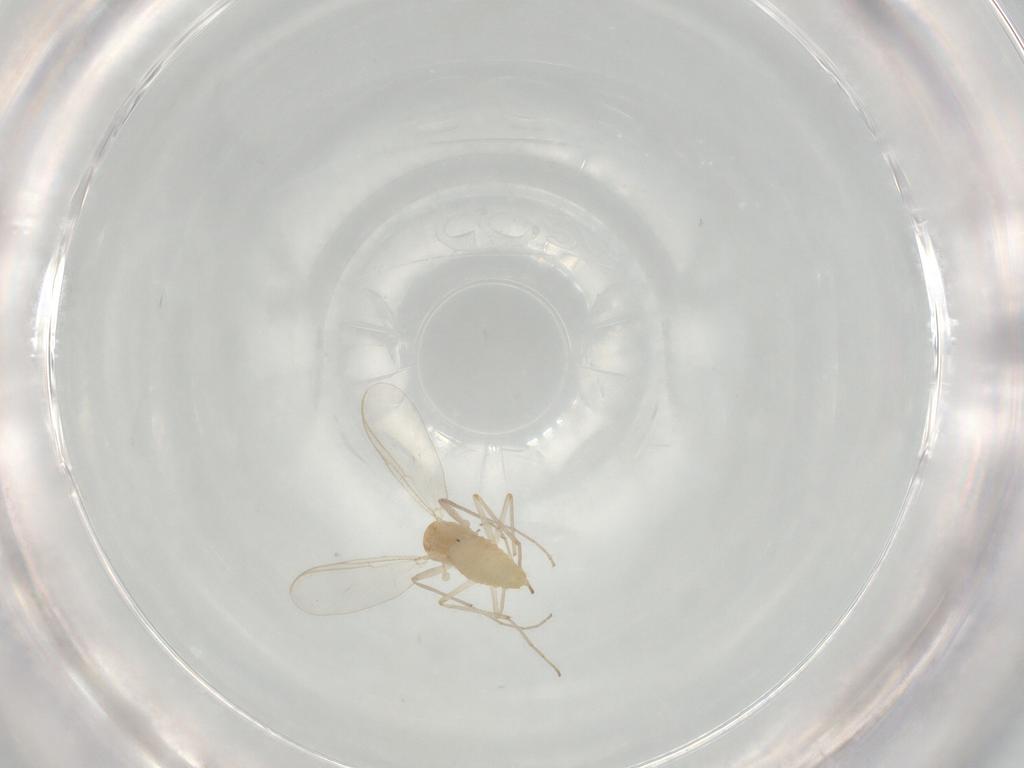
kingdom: Animalia
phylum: Arthropoda
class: Insecta
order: Diptera
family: Chironomidae
